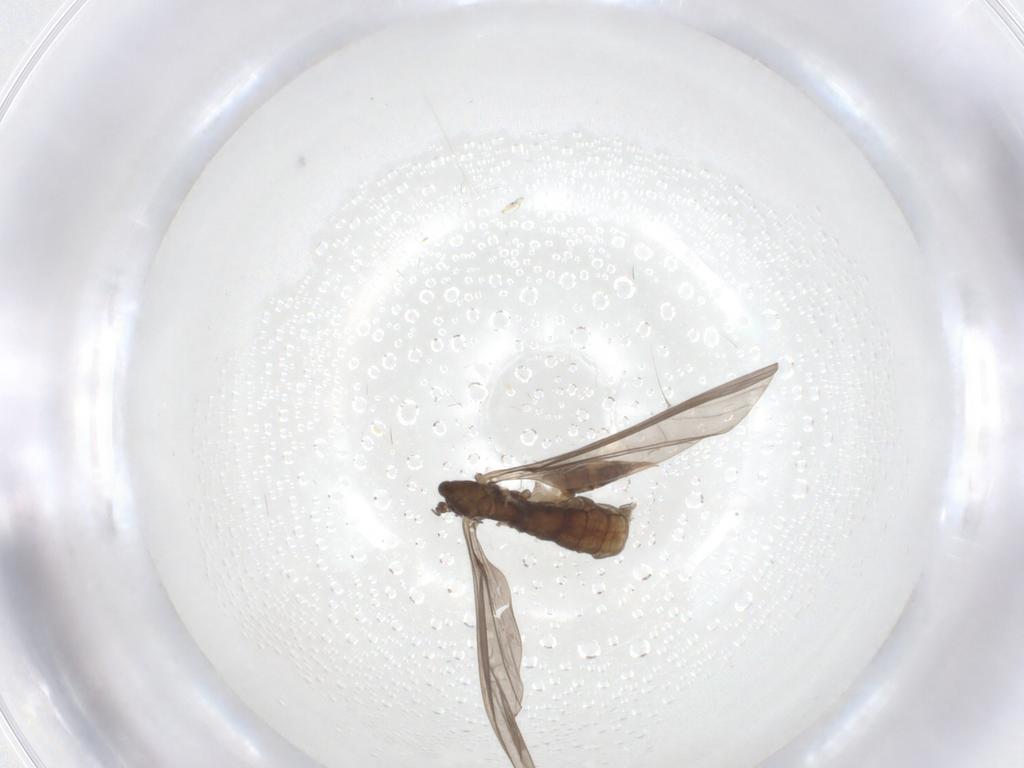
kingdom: Animalia
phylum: Arthropoda
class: Insecta
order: Diptera
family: Limoniidae
